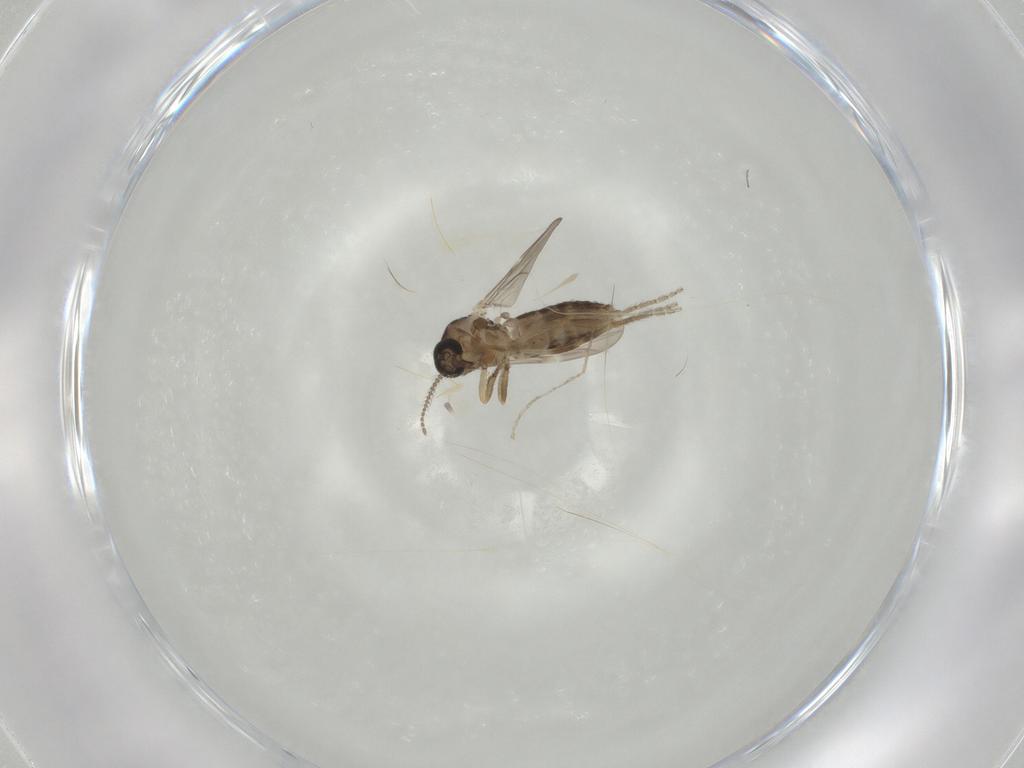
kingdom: Animalia
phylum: Arthropoda
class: Insecta
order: Diptera
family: Ceratopogonidae
